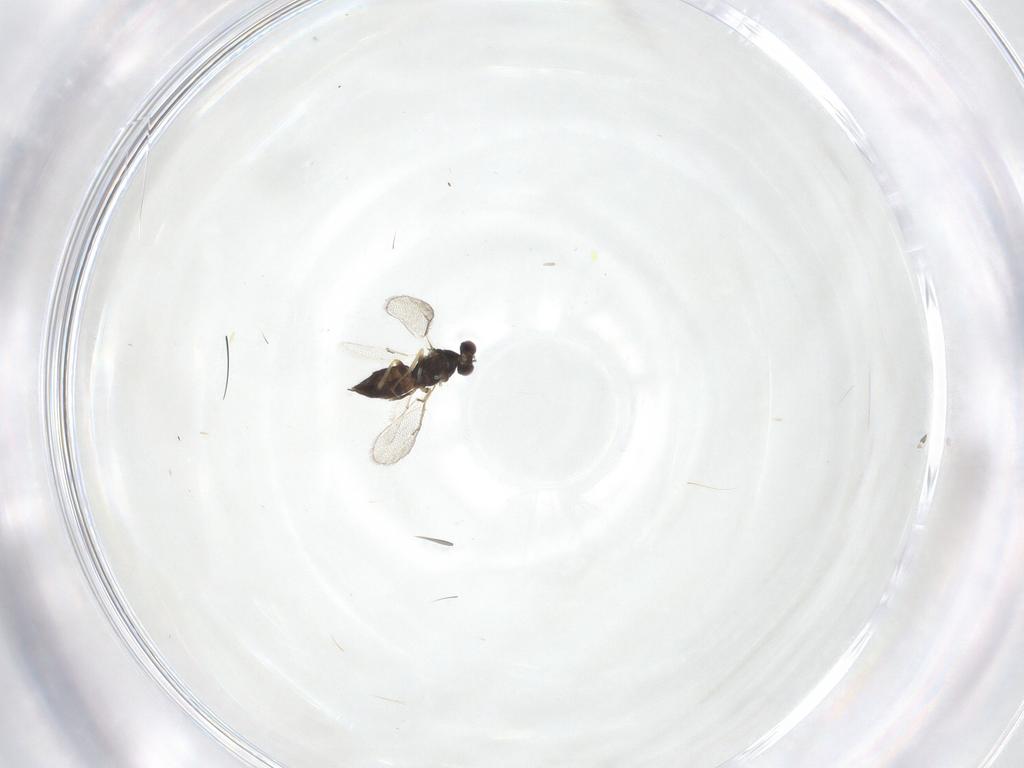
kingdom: Animalia
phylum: Arthropoda
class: Insecta
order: Hymenoptera
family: Eulophidae
